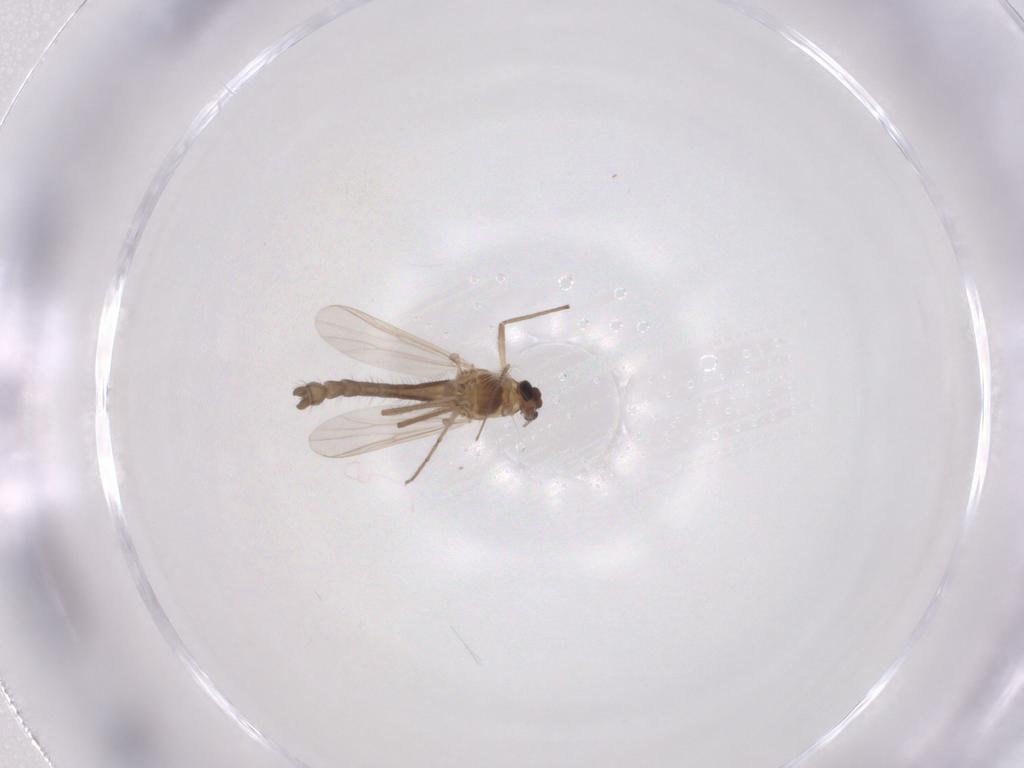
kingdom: Animalia
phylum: Arthropoda
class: Insecta
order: Diptera
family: Chironomidae
